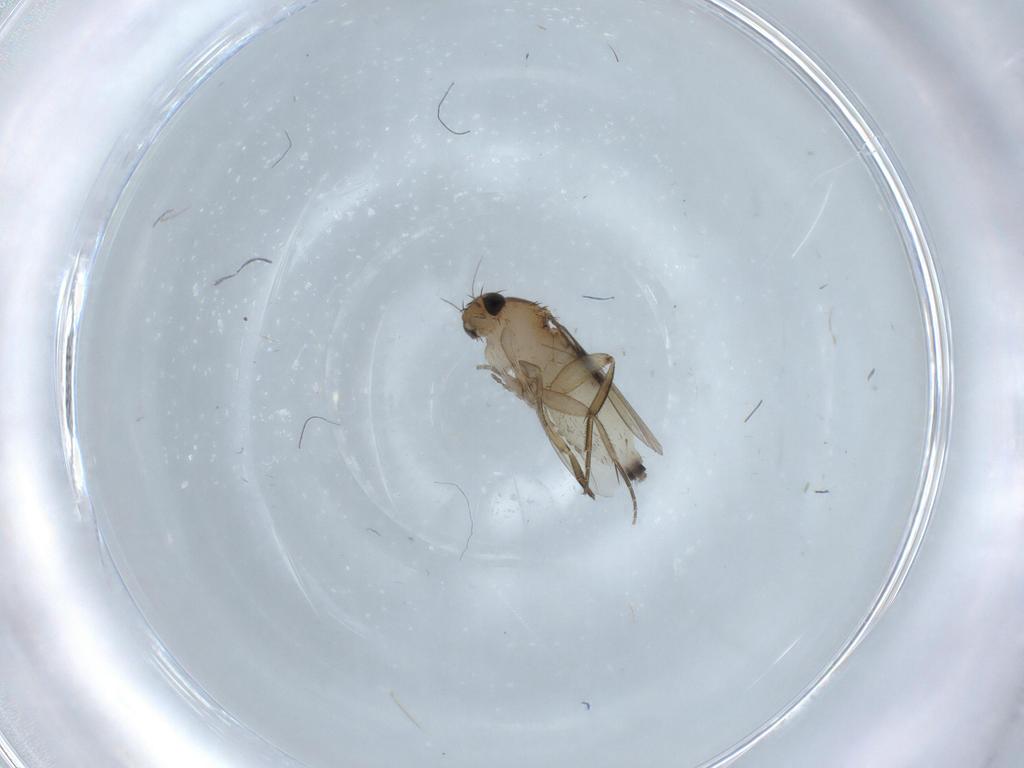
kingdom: Animalia
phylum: Arthropoda
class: Insecta
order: Diptera
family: Phoridae
